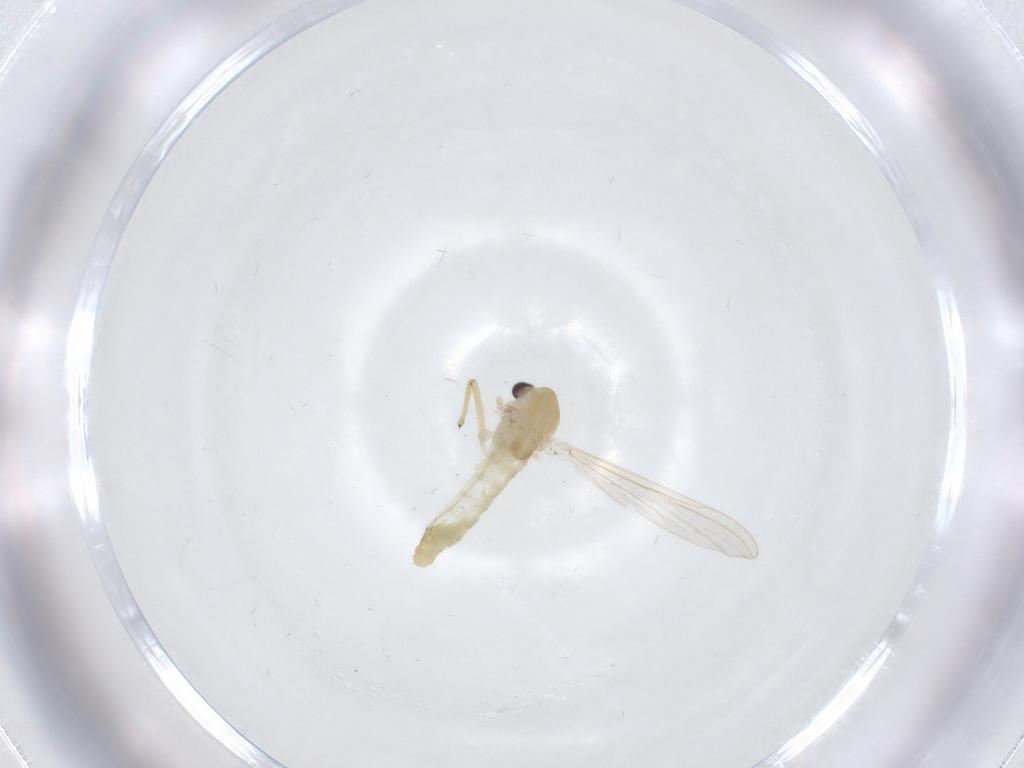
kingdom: Animalia
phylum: Arthropoda
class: Insecta
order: Diptera
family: Chironomidae
